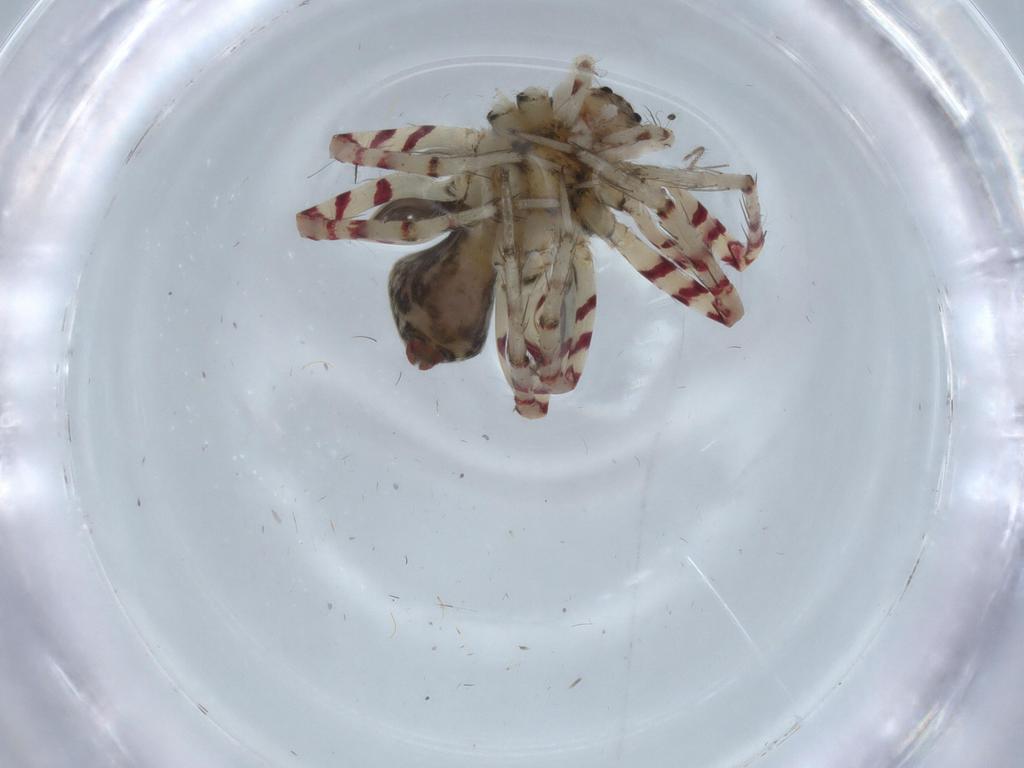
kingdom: Animalia
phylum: Arthropoda
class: Arachnida
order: Araneae
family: Trechaleidae
